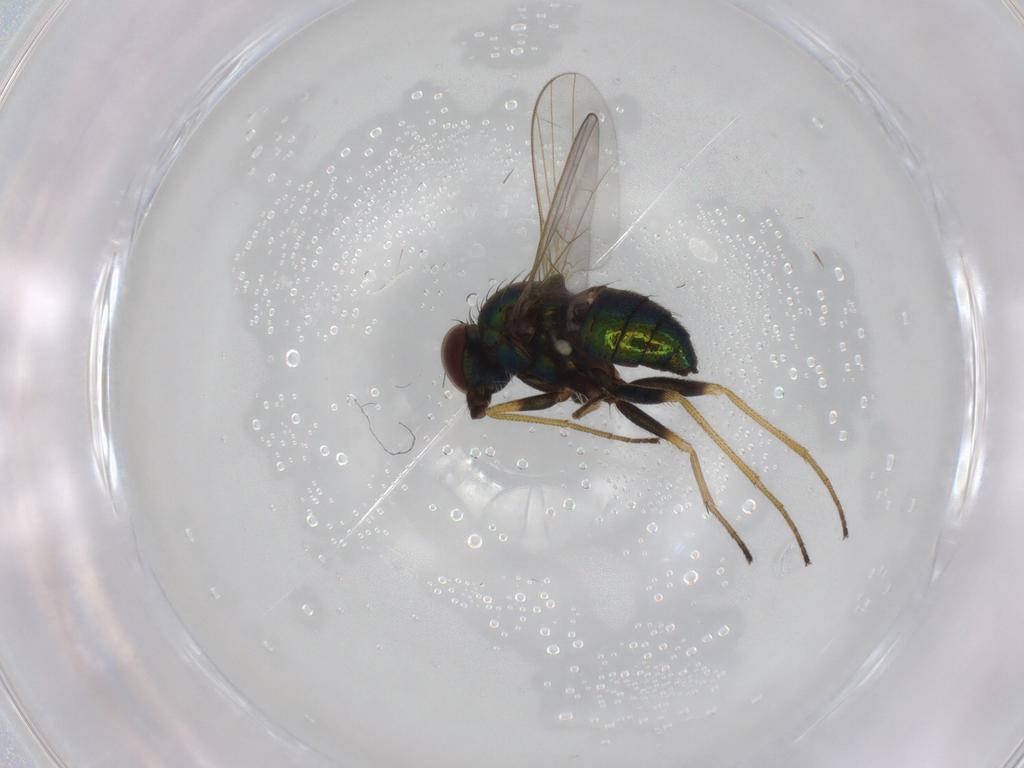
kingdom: Animalia
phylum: Arthropoda
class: Insecta
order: Diptera
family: Dolichopodidae
